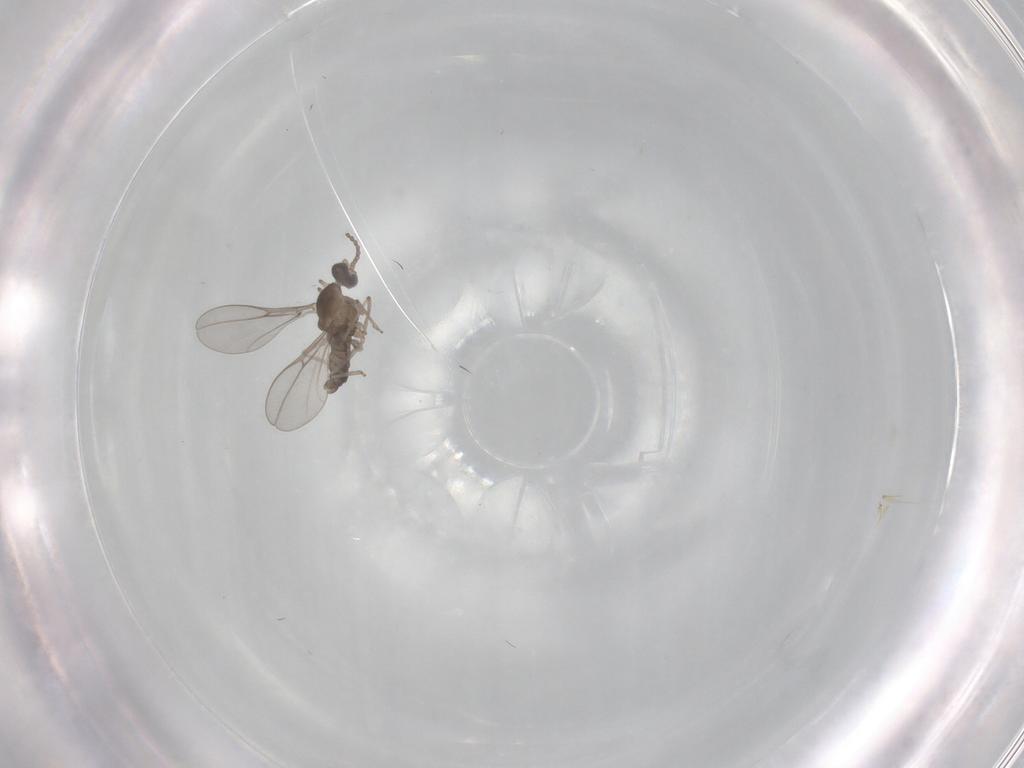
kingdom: Animalia
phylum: Arthropoda
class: Insecta
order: Diptera
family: Cecidomyiidae
